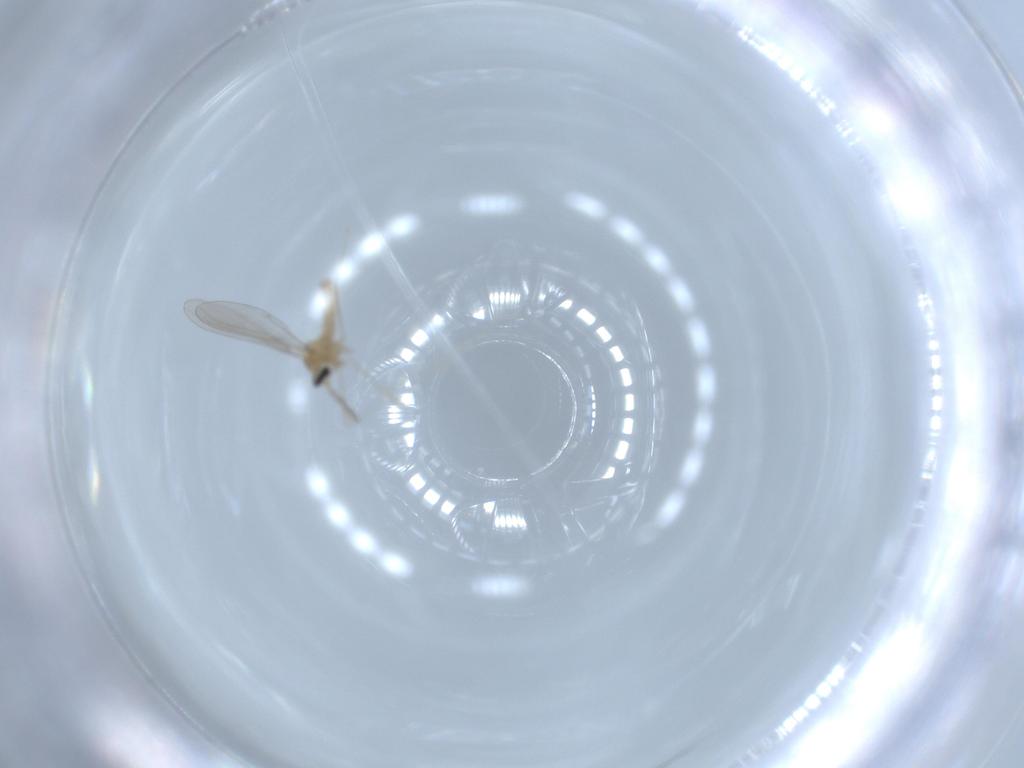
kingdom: Animalia
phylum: Arthropoda
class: Insecta
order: Diptera
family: Cecidomyiidae
